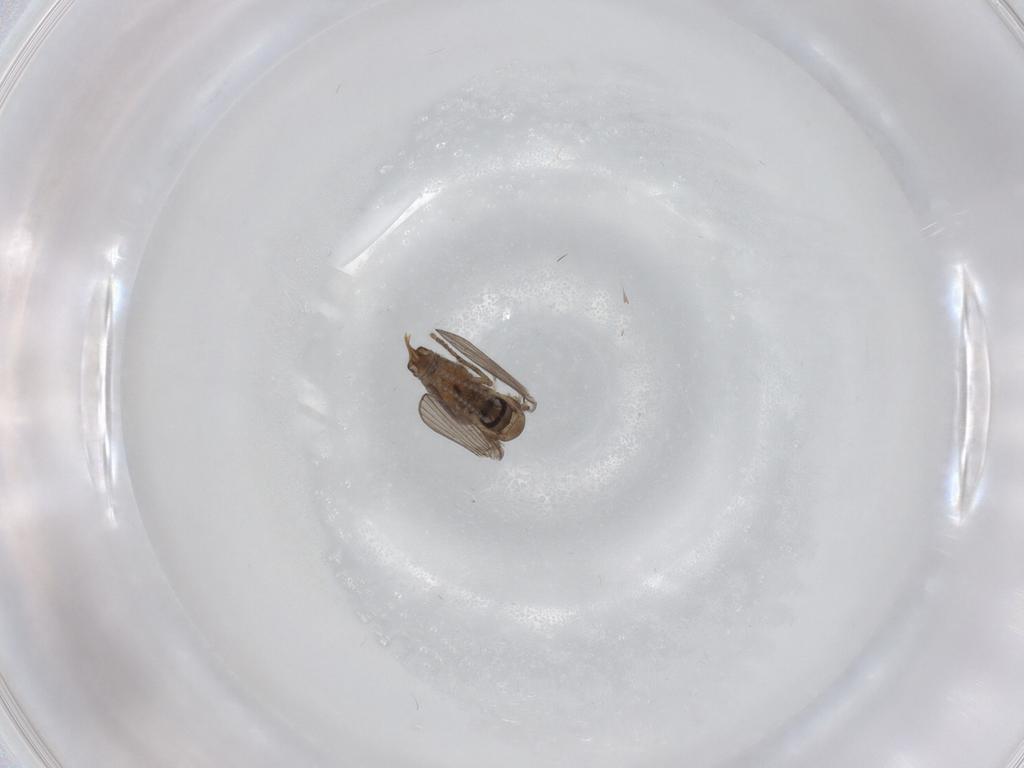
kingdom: Animalia
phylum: Arthropoda
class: Insecta
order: Diptera
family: Psychodidae
